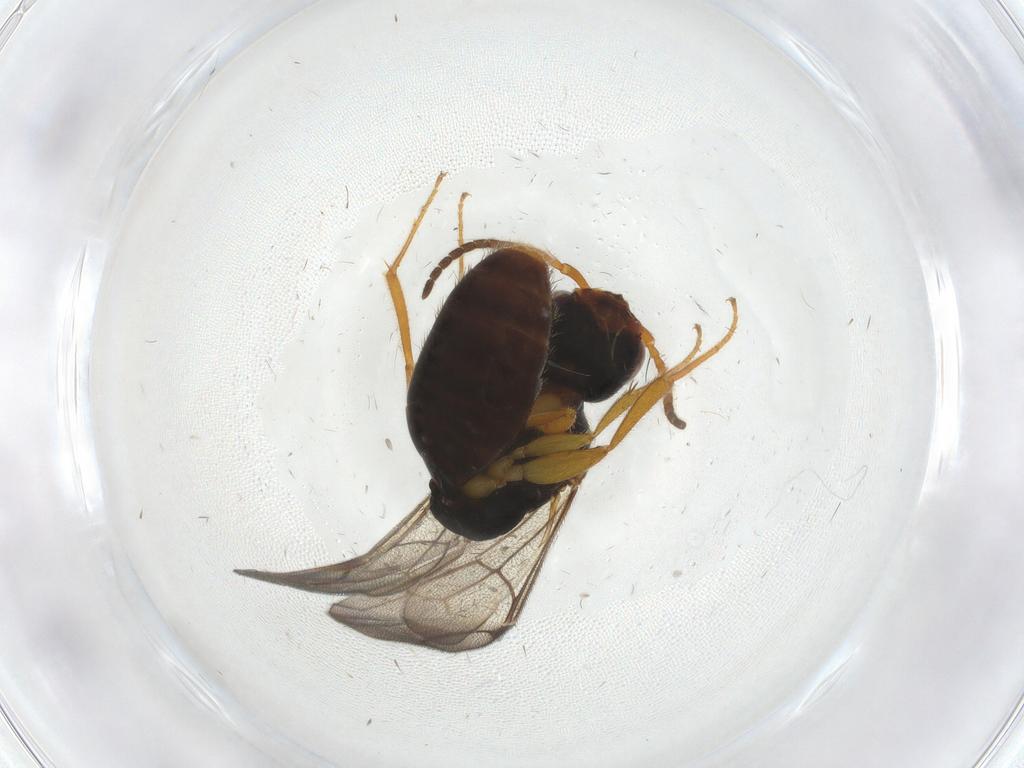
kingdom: Animalia
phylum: Arthropoda
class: Insecta
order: Hymenoptera
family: Bethylidae
